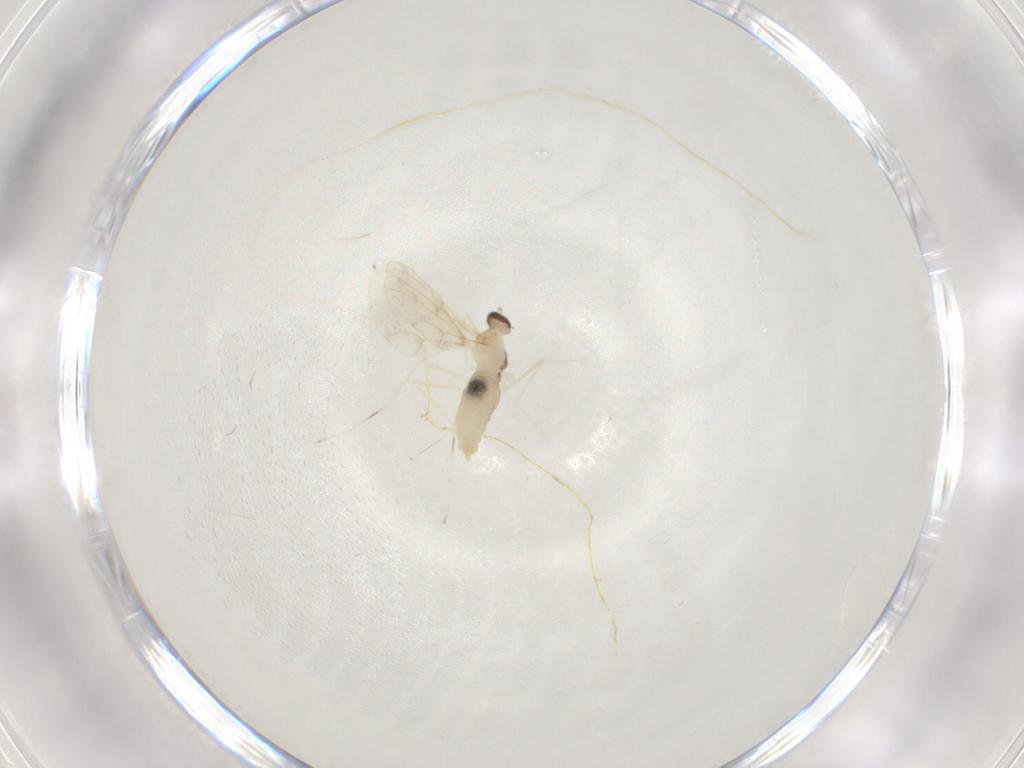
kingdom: Animalia
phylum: Arthropoda
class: Insecta
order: Diptera
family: Cecidomyiidae
